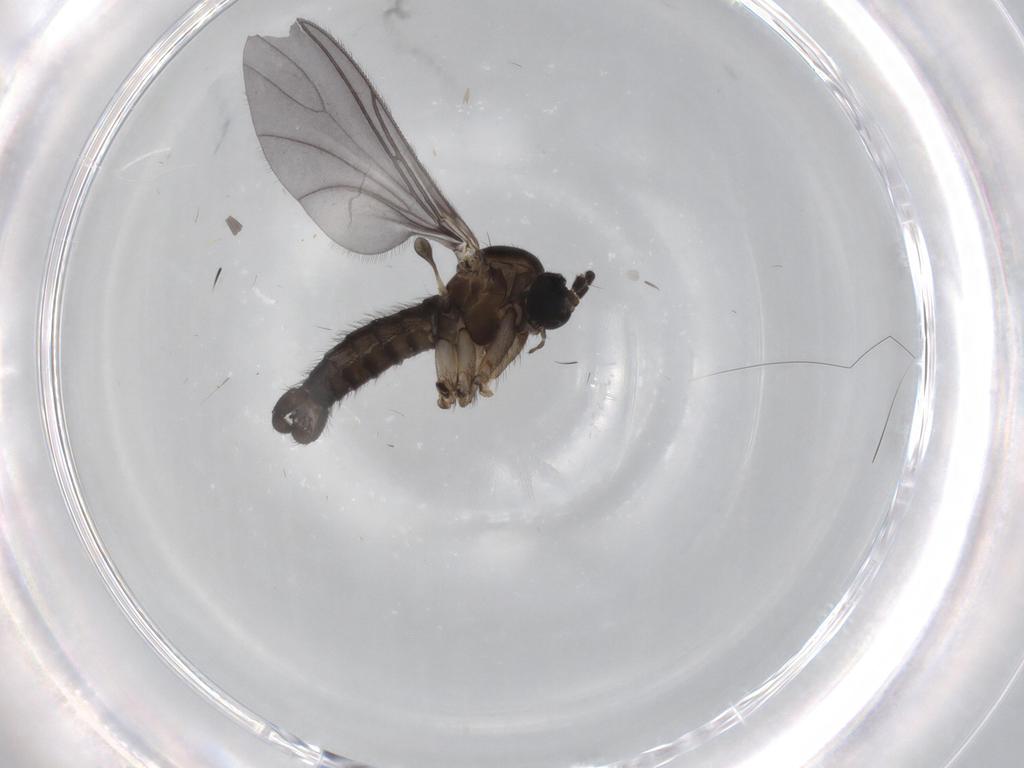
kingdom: Animalia
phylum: Arthropoda
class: Insecta
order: Diptera
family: Sciaridae
